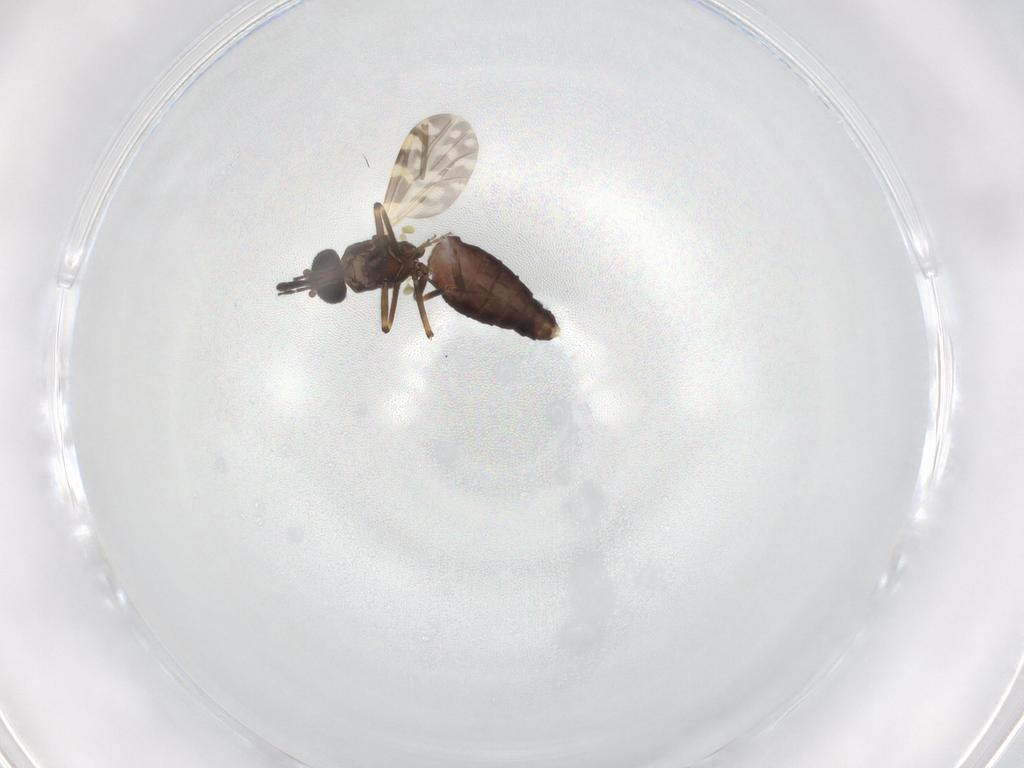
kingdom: Animalia
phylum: Arthropoda
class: Insecta
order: Diptera
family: Ceratopogonidae
